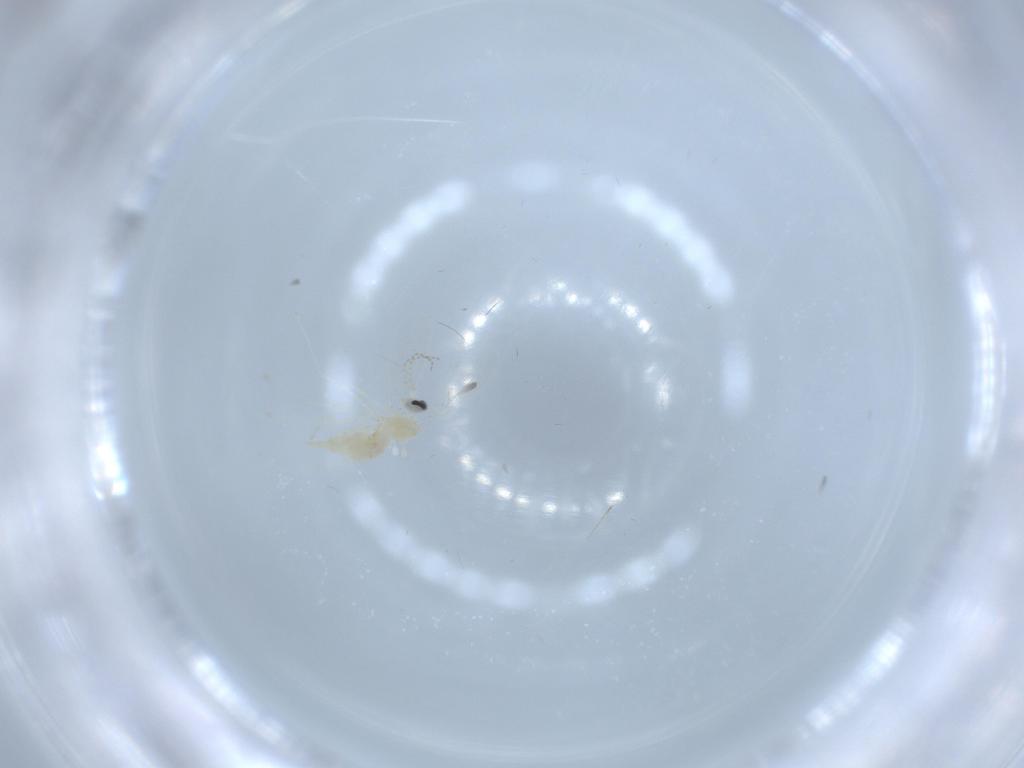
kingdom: Animalia
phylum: Arthropoda
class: Insecta
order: Diptera
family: Cecidomyiidae
